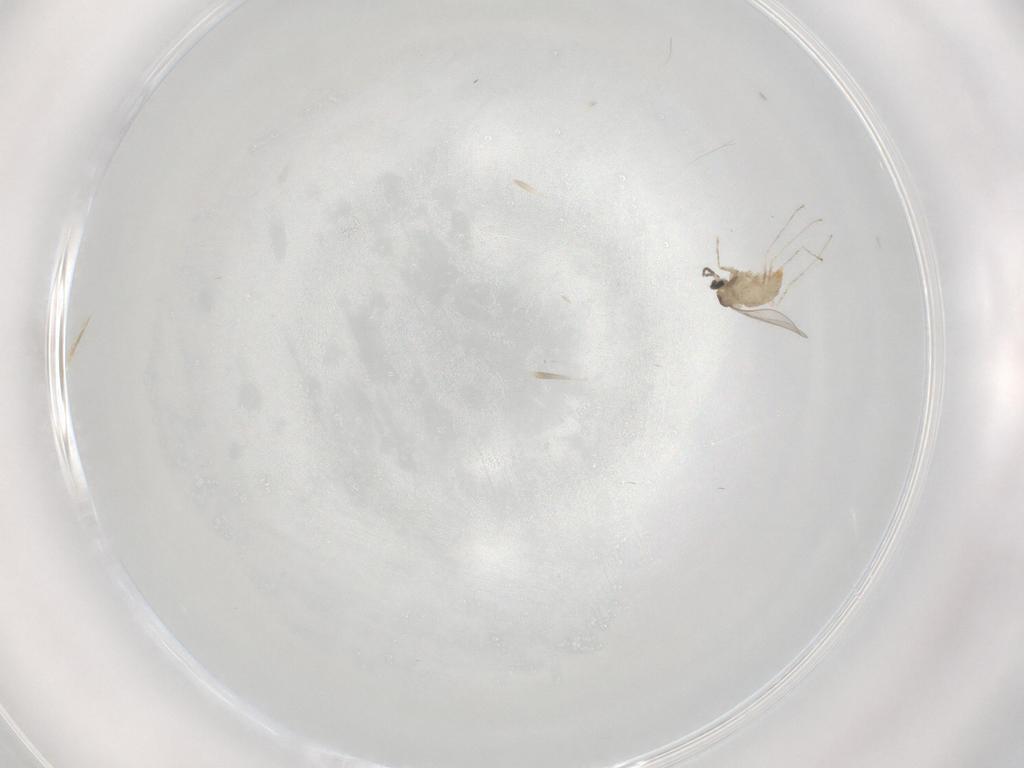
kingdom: Animalia
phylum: Arthropoda
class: Insecta
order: Diptera
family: Cecidomyiidae
